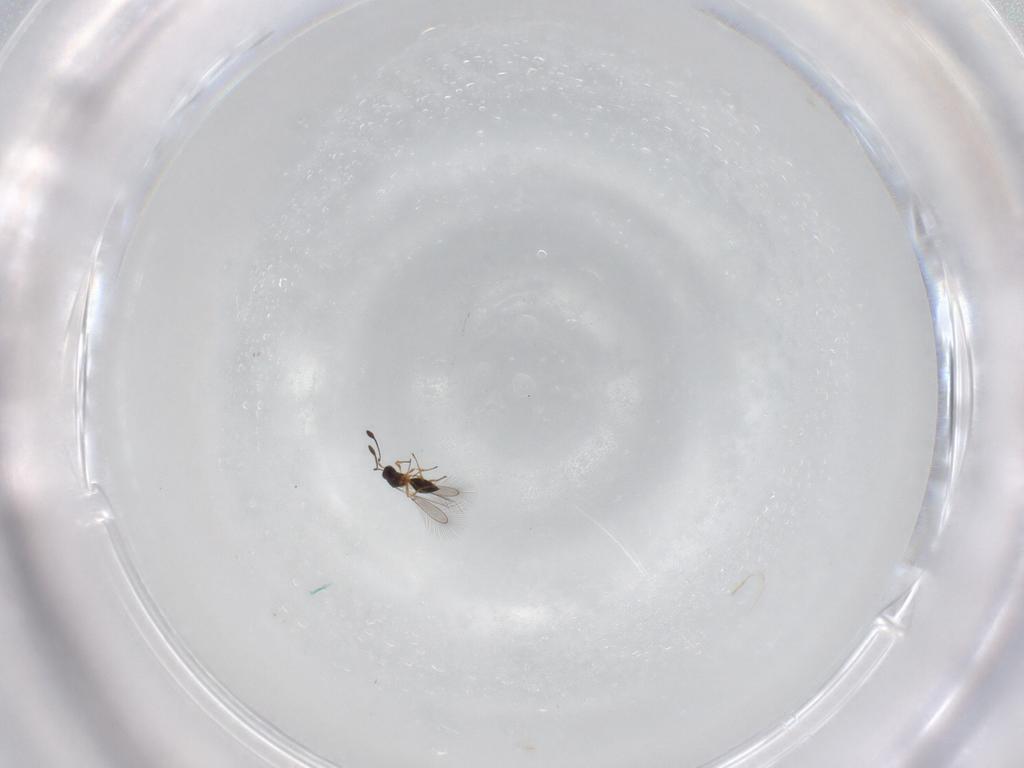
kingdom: Animalia
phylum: Arthropoda
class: Insecta
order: Hymenoptera
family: Mymaridae
